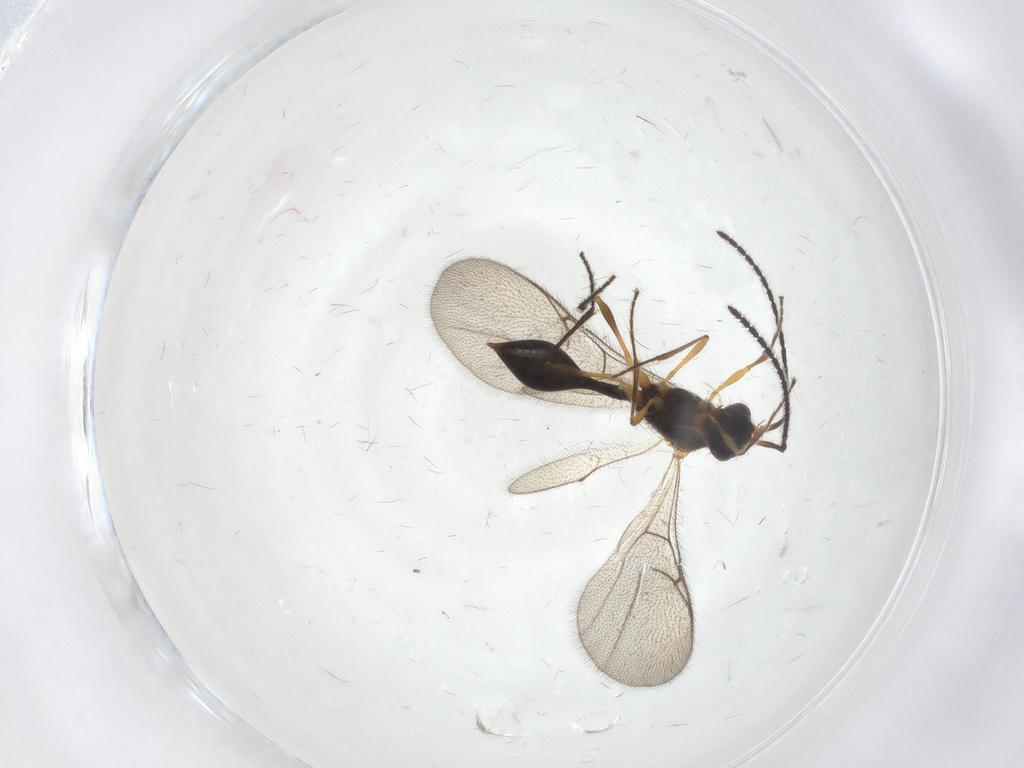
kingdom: Animalia
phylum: Arthropoda
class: Insecta
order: Hymenoptera
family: Diapriidae
